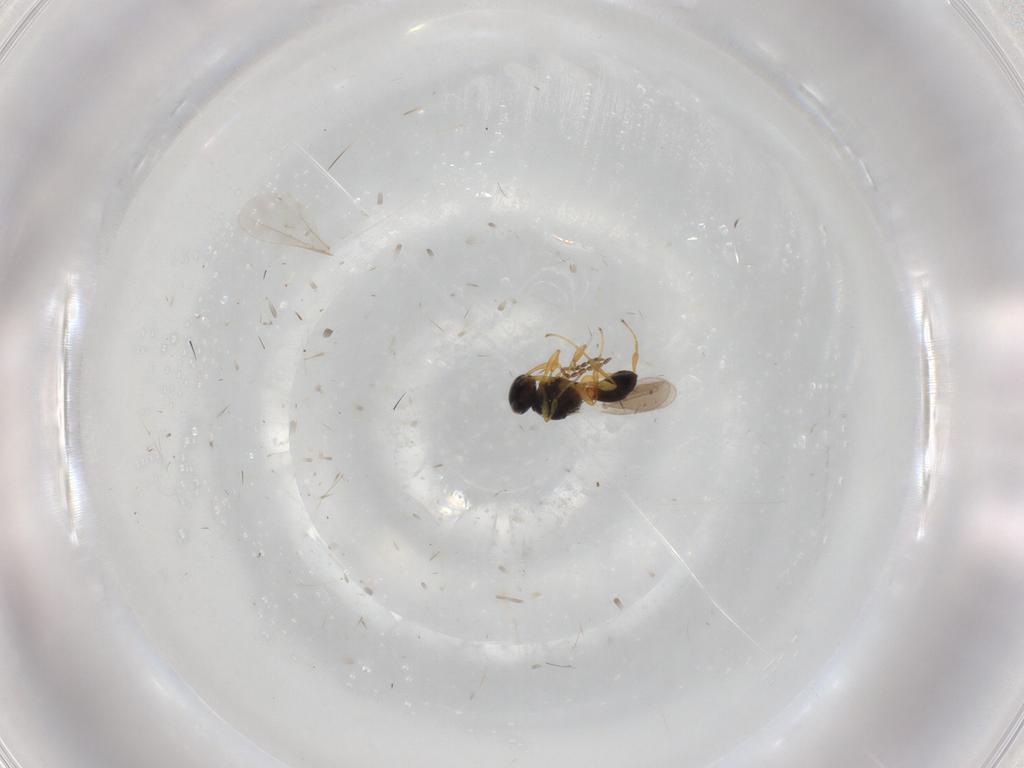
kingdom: Animalia
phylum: Arthropoda
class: Insecta
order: Hymenoptera
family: Platygastridae
